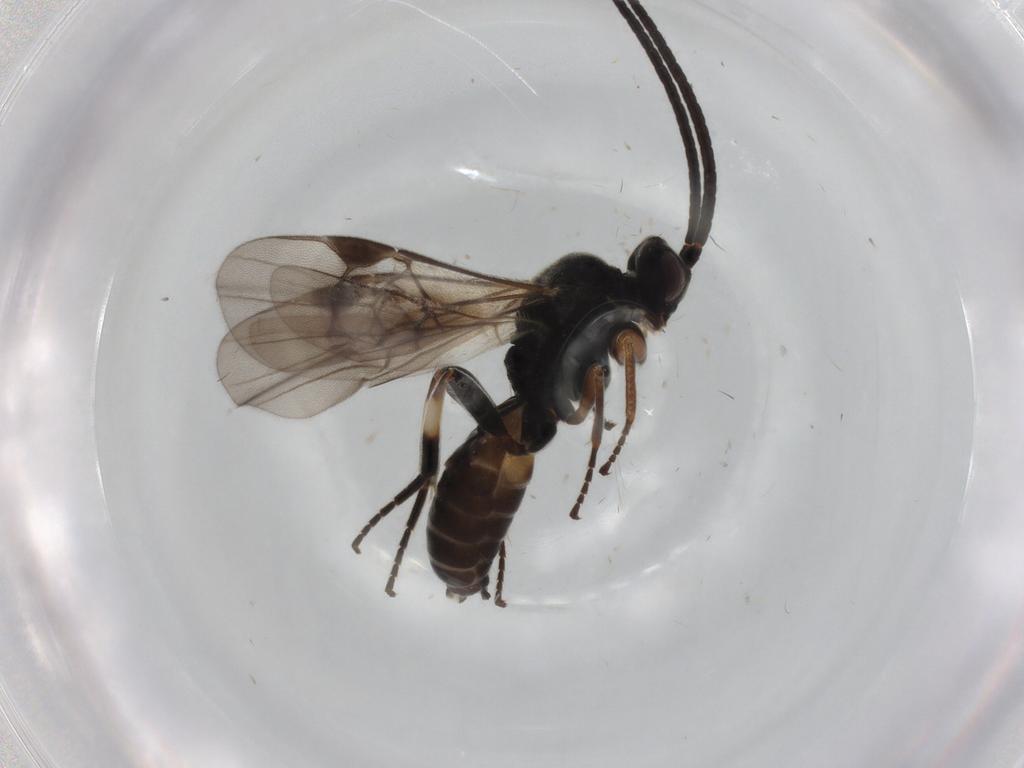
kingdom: Animalia
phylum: Arthropoda
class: Insecta
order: Hymenoptera
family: Braconidae
